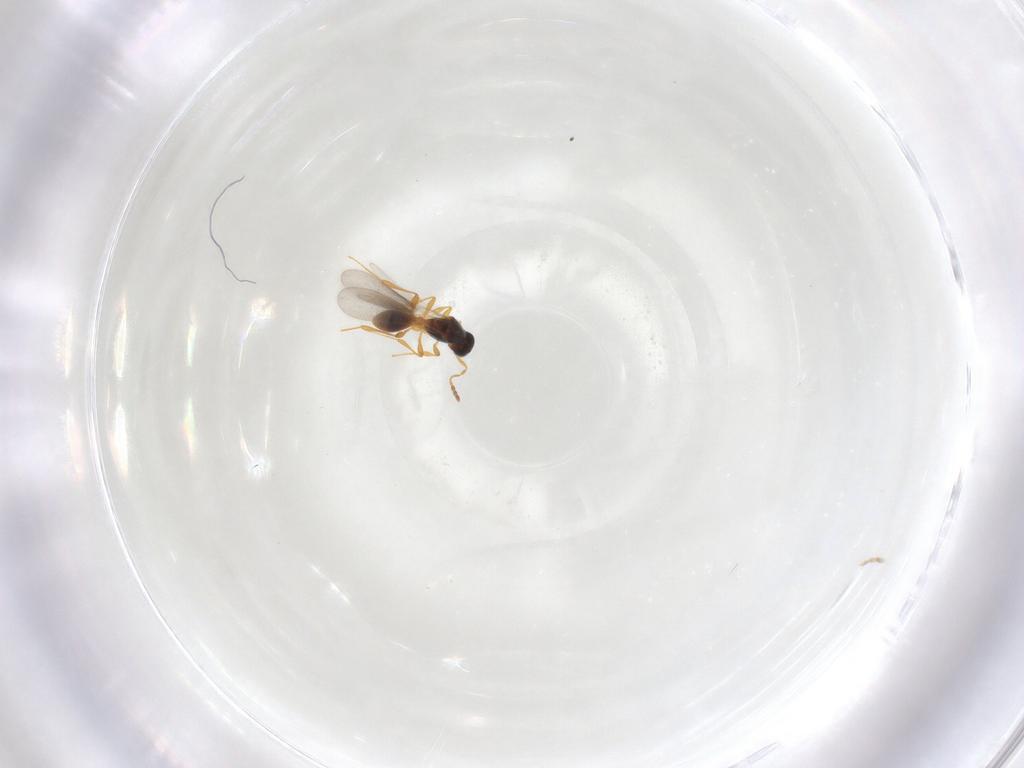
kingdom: Animalia
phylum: Arthropoda
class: Insecta
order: Hymenoptera
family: Platygastridae
